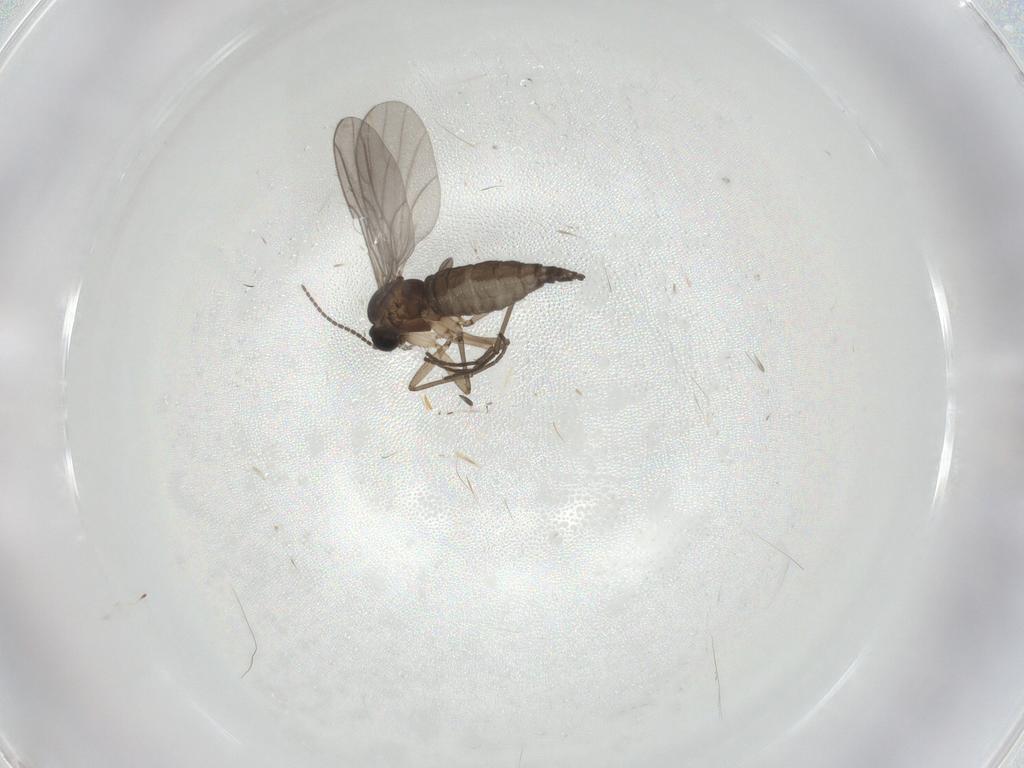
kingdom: Animalia
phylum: Arthropoda
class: Insecta
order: Diptera
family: Sciaridae
